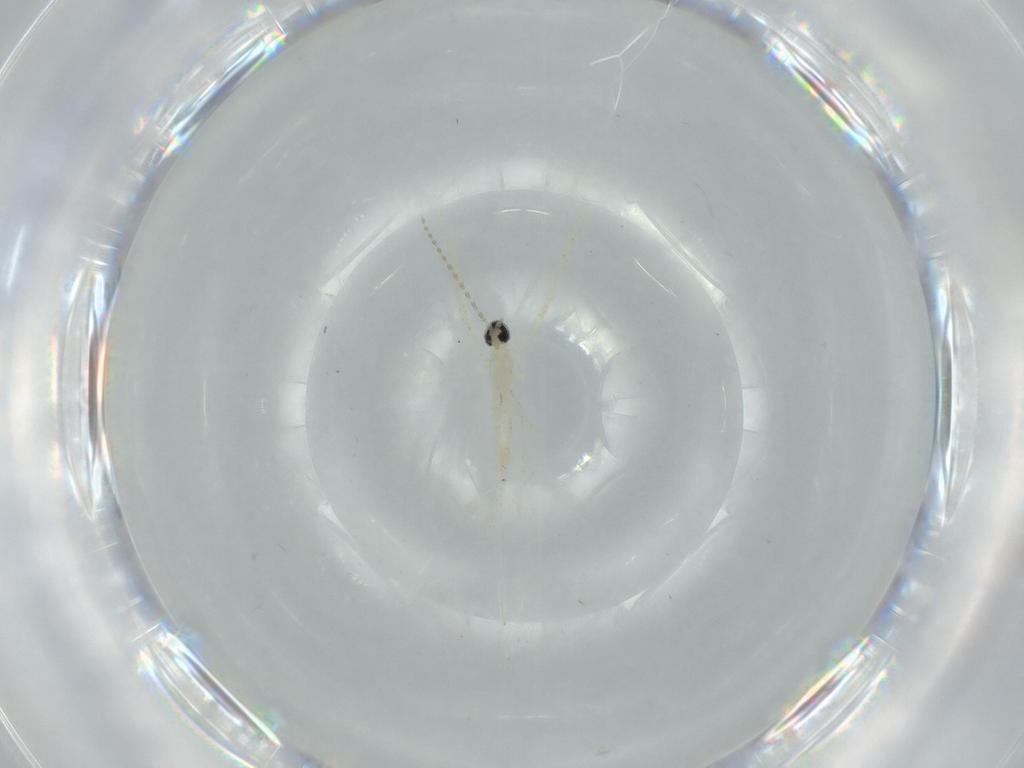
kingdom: Animalia
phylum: Arthropoda
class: Insecta
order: Diptera
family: Cecidomyiidae
